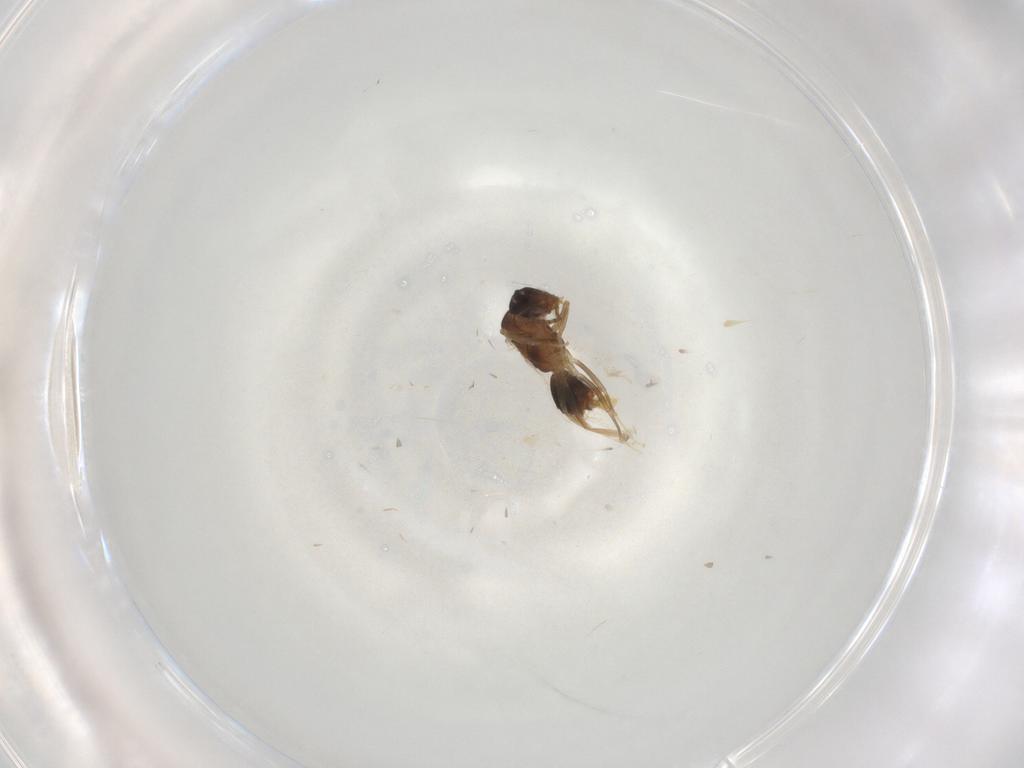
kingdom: Animalia
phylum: Arthropoda
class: Insecta
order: Hymenoptera
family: Formicidae
